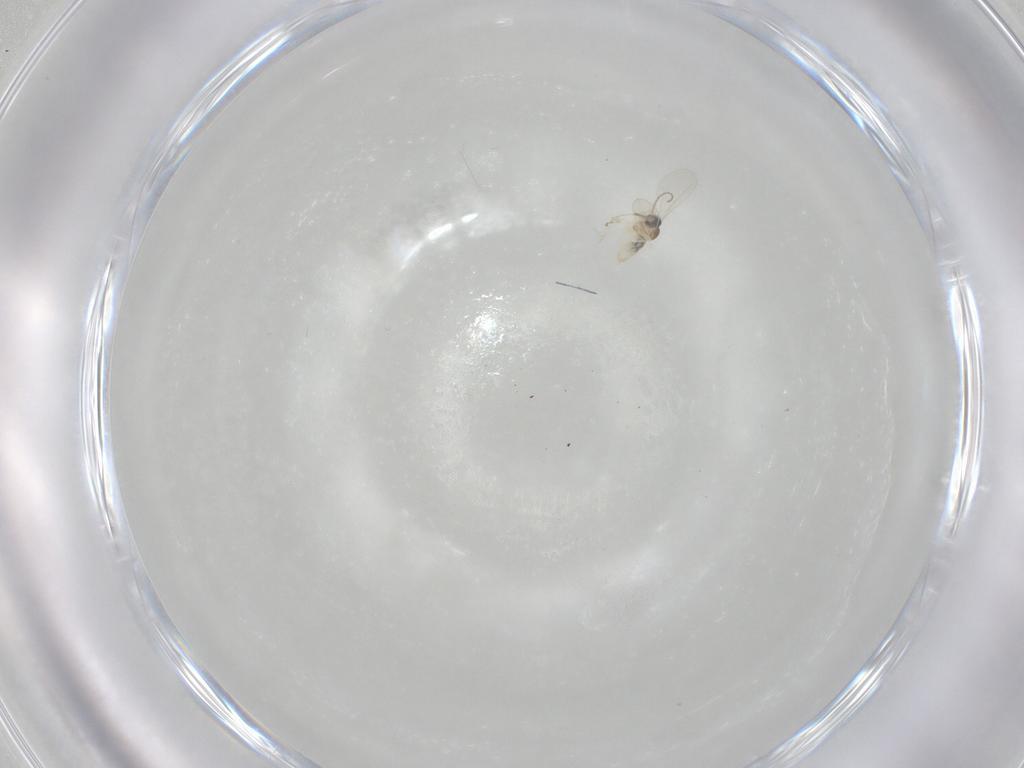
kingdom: Animalia
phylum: Arthropoda
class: Insecta
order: Diptera
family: Cecidomyiidae
